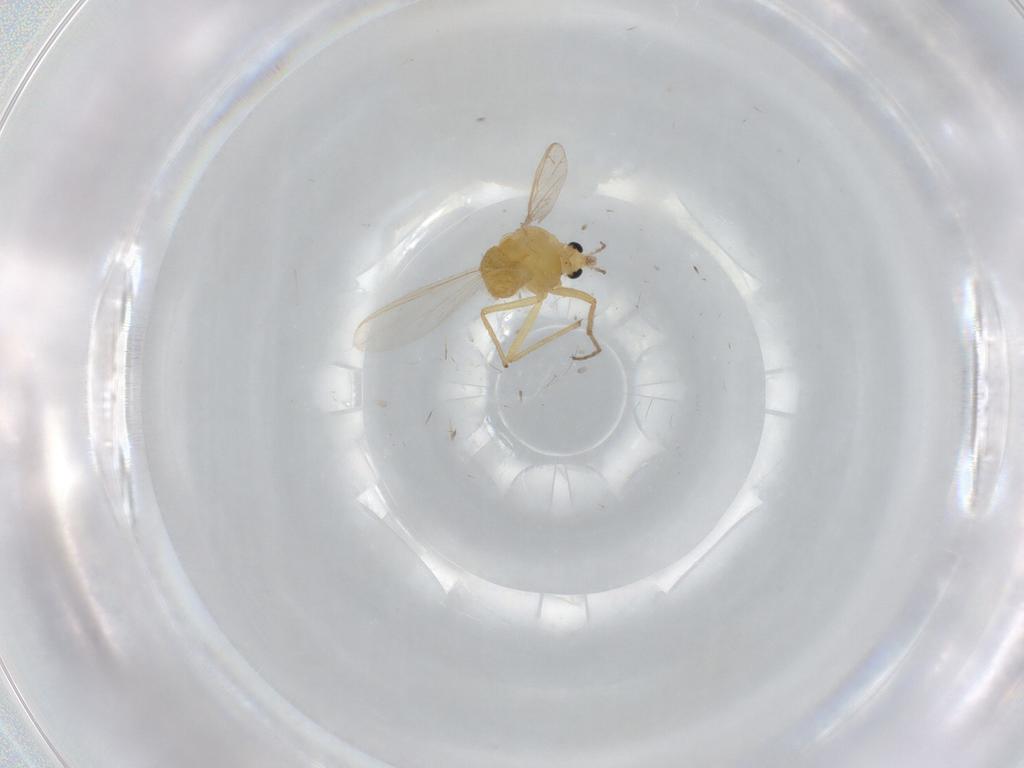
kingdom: Animalia
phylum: Arthropoda
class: Insecta
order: Diptera
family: Chironomidae
